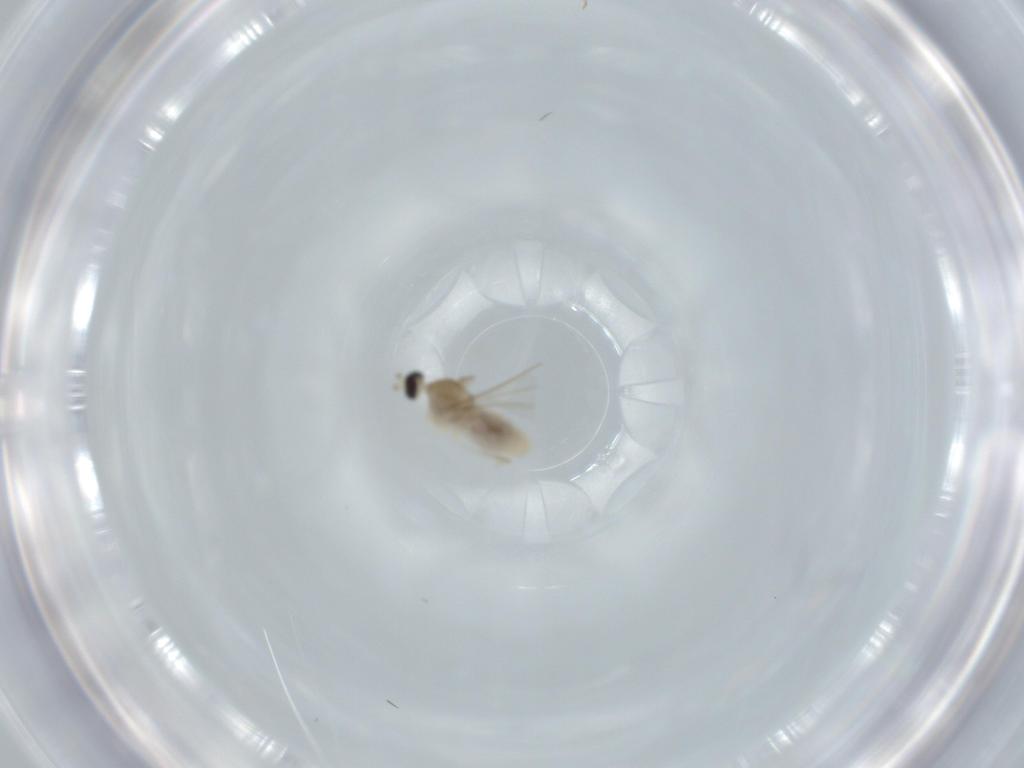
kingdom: Animalia
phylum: Arthropoda
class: Insecta
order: Diptera
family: Cecidomyiidae
